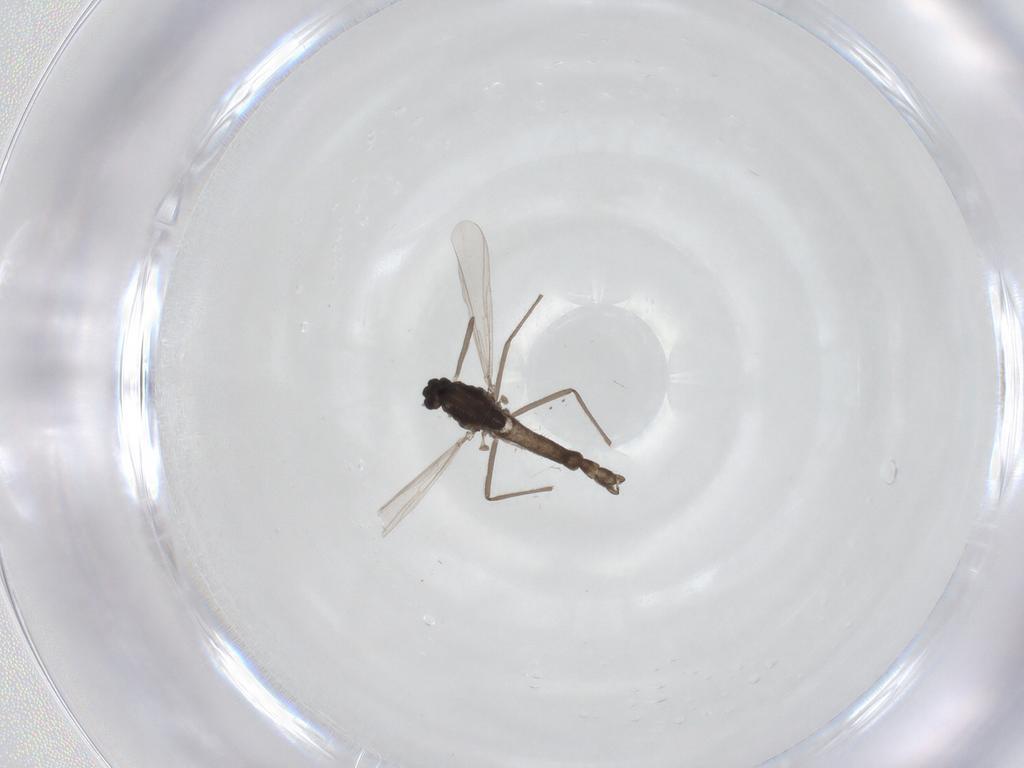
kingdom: Animalia
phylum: Arthropoda
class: Insecta
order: Diptera
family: Chironomidae
